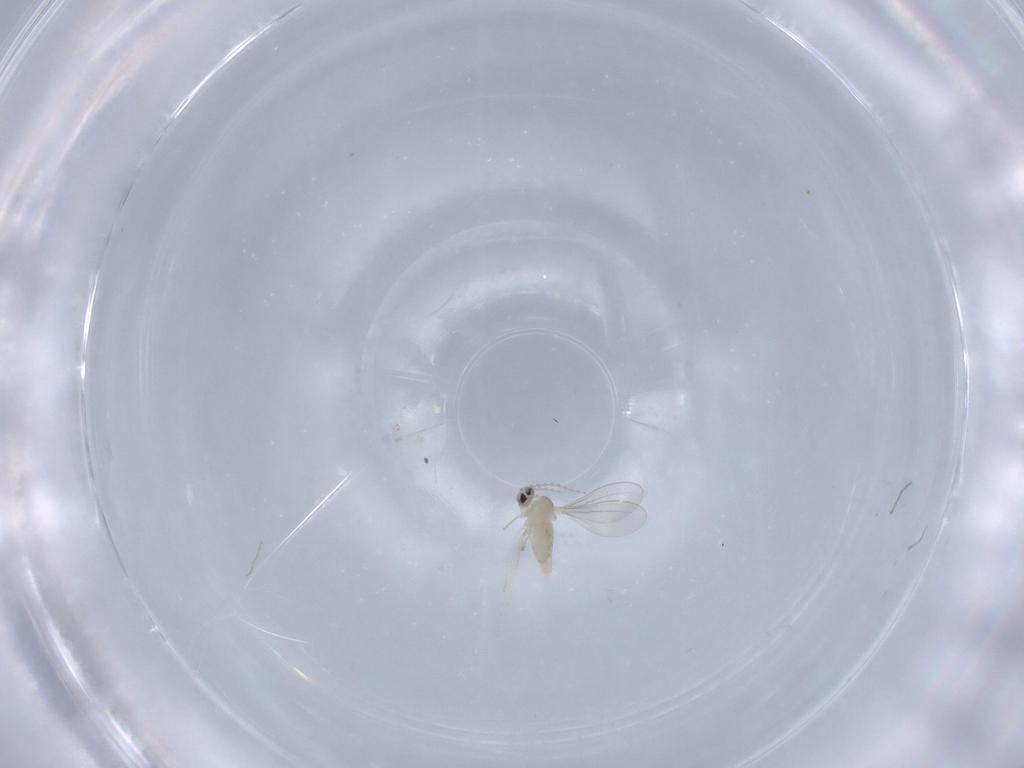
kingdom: Animalia
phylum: Arthropoda
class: Insecta
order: Diptera
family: Cecidomyiidae
